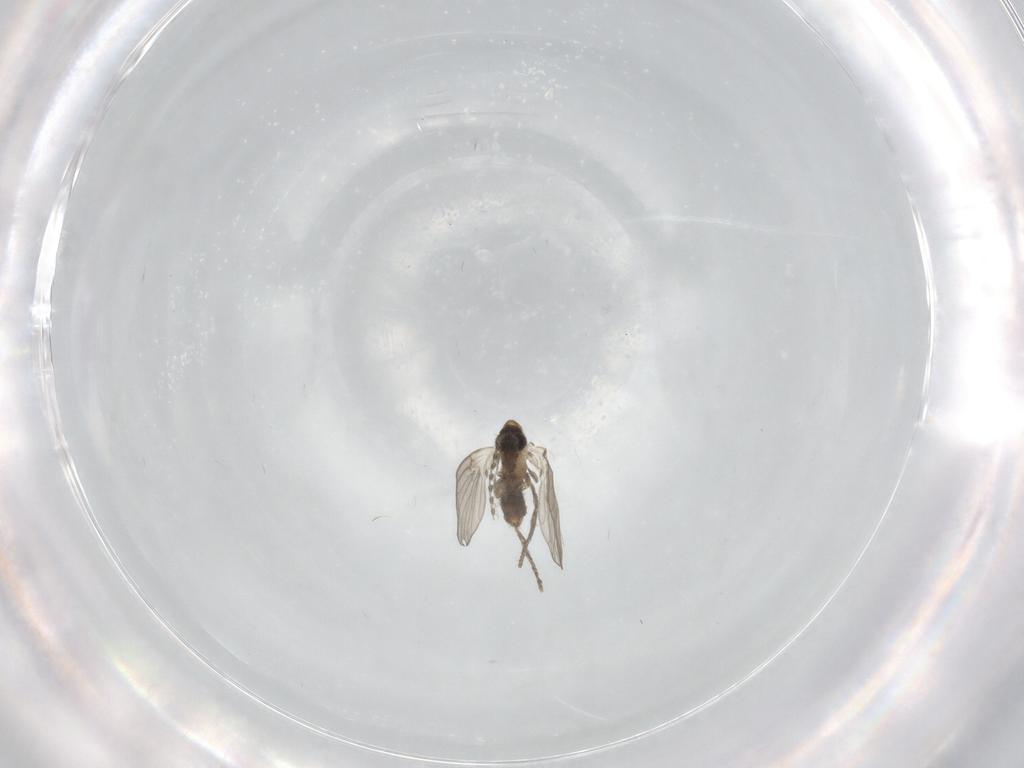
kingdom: Animalia
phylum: Arthropoda
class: Insecta
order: Diptera
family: Psychodidae
